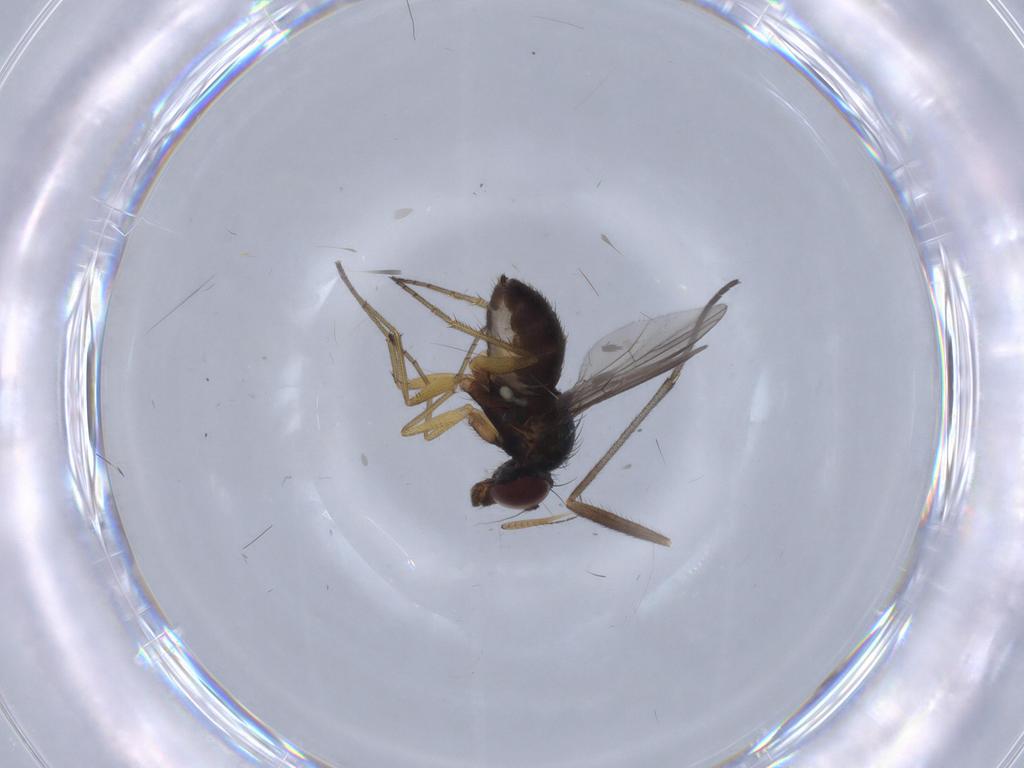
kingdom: Animalia
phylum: Arthropoda
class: Insecta
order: Diptera
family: Dolichopodidae
